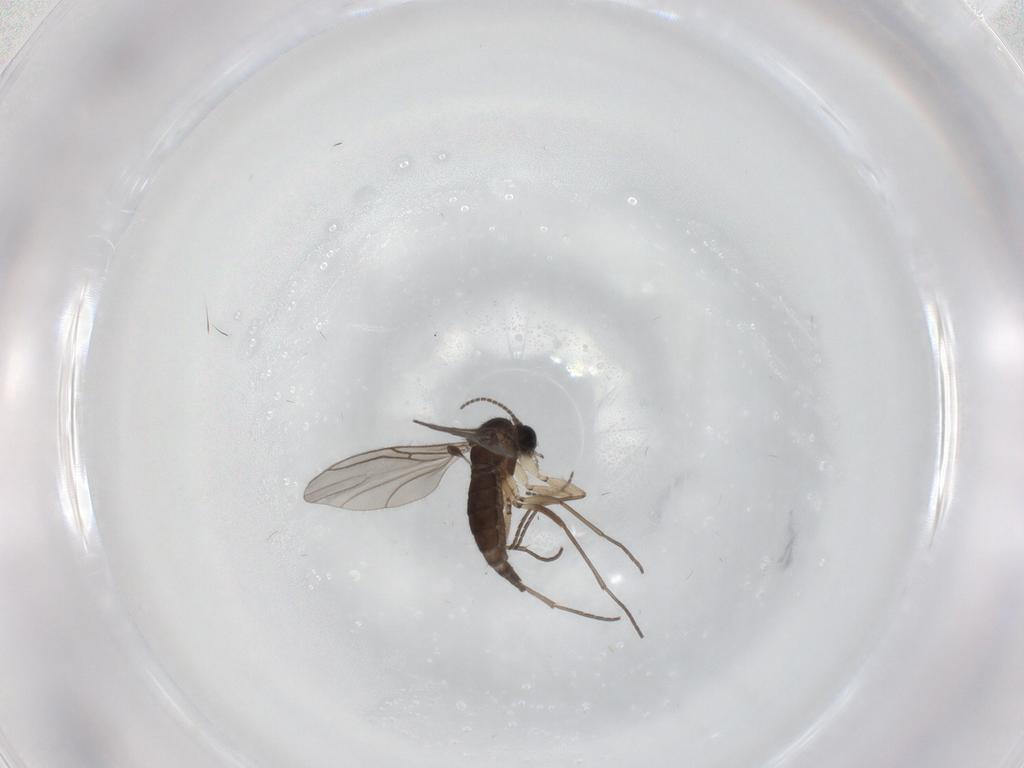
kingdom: Animalia
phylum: Arthropoda
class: Insecta
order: Diptera
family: Sciaridae
